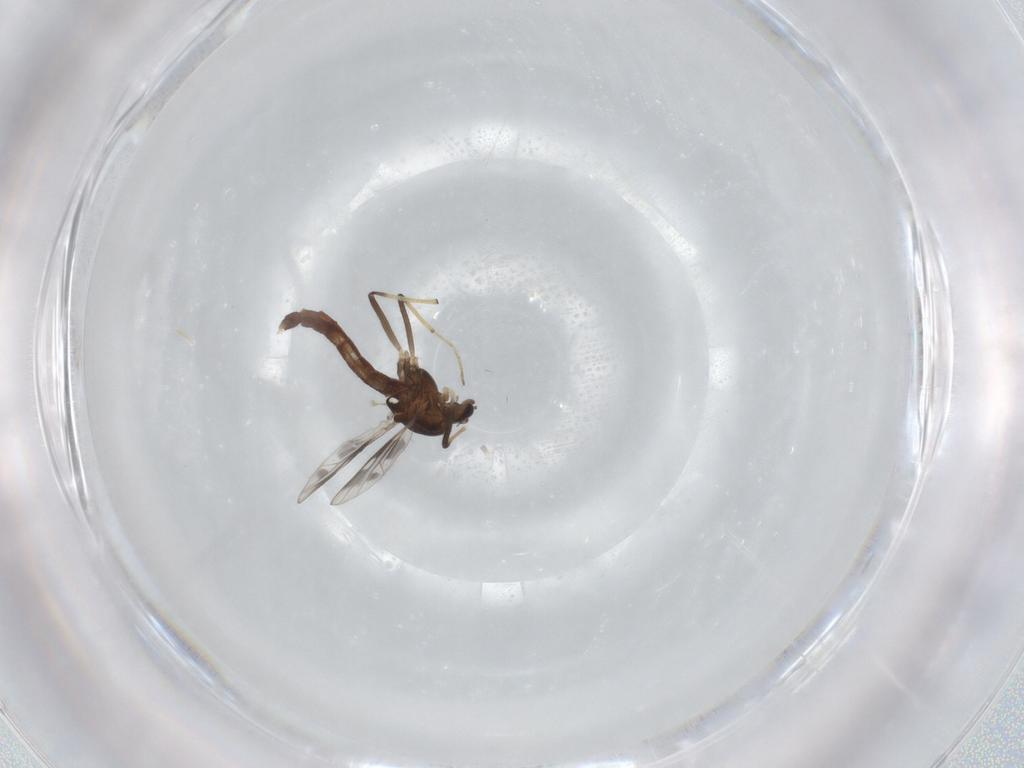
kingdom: Animalia
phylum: Arthropoda
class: Insecta
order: Diptera
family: Chironomidae
